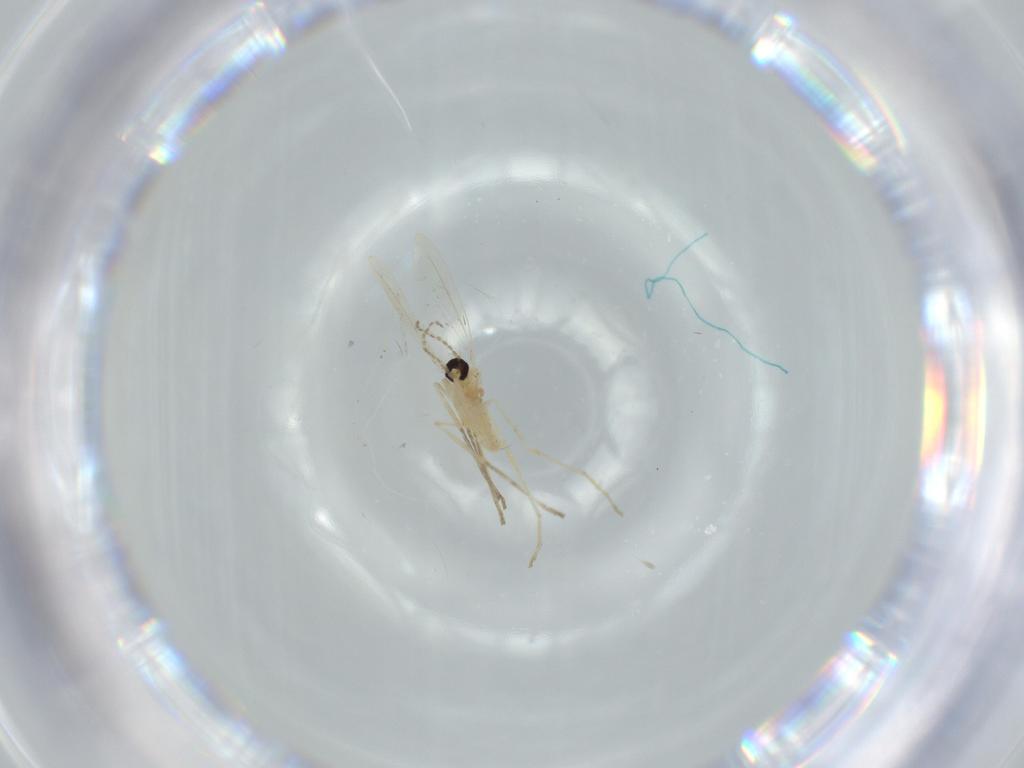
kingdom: Animalia
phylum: Arthropoda
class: Insecta
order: Diptera
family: Cecidomyiidae
